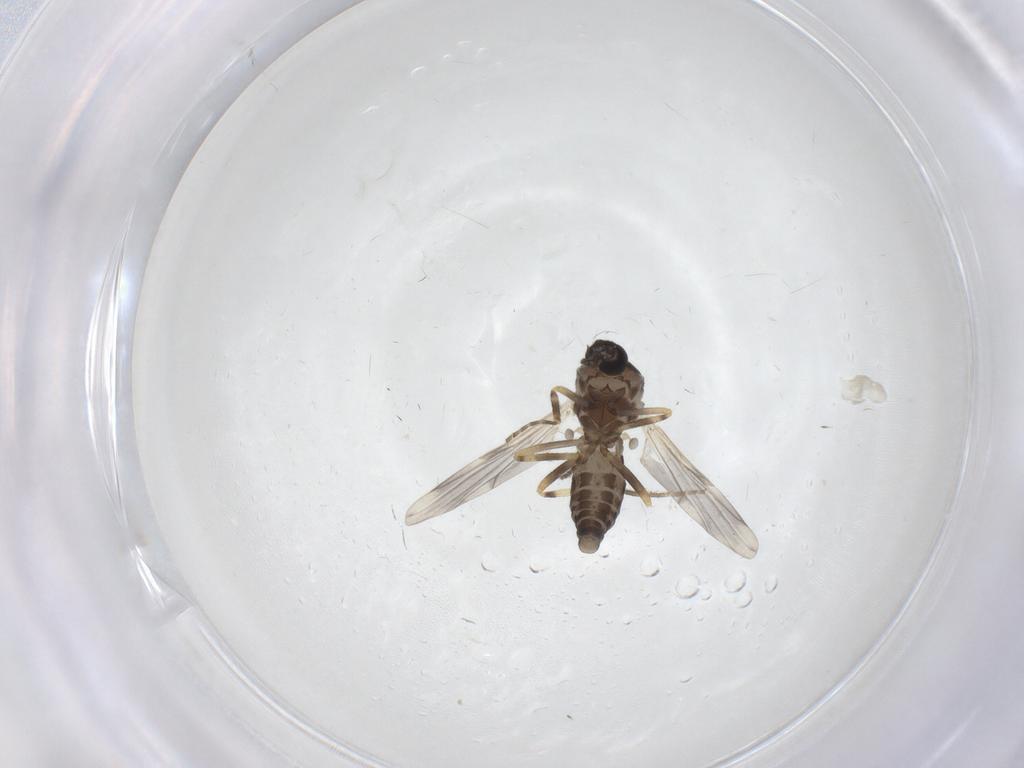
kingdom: Animalia
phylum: Arthropoda
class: Insecta
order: Diptera
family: Ceratopogonidae
